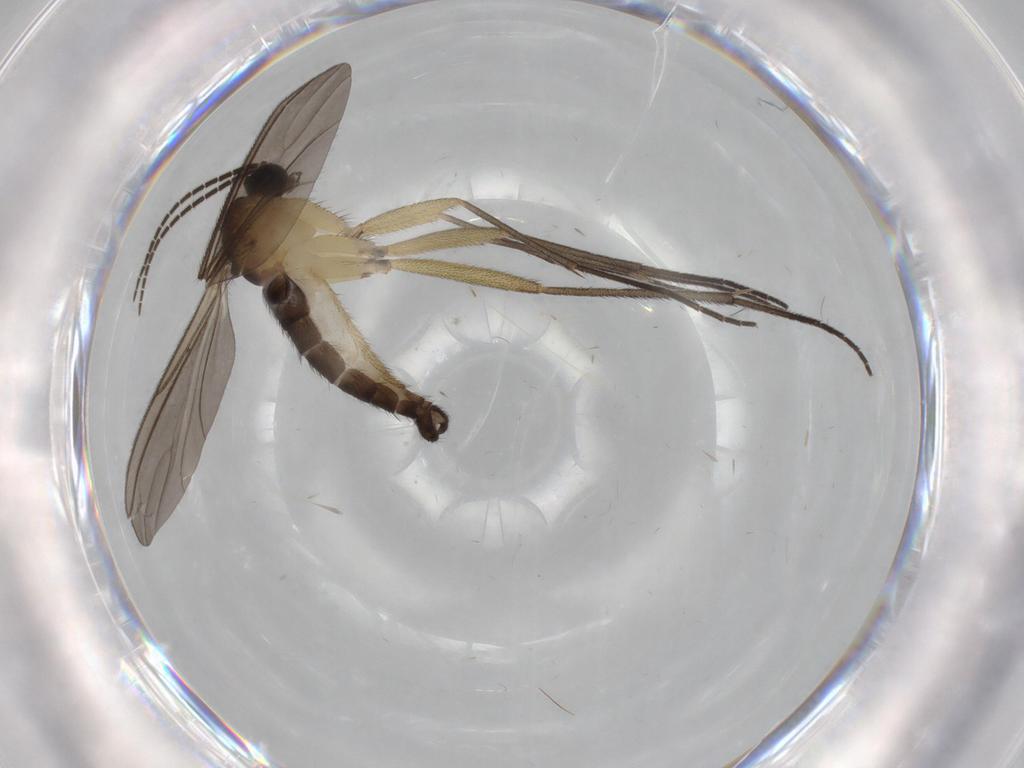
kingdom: Animalia
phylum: Arthropoda
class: Insecta
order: Diptera
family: Sciaridae
